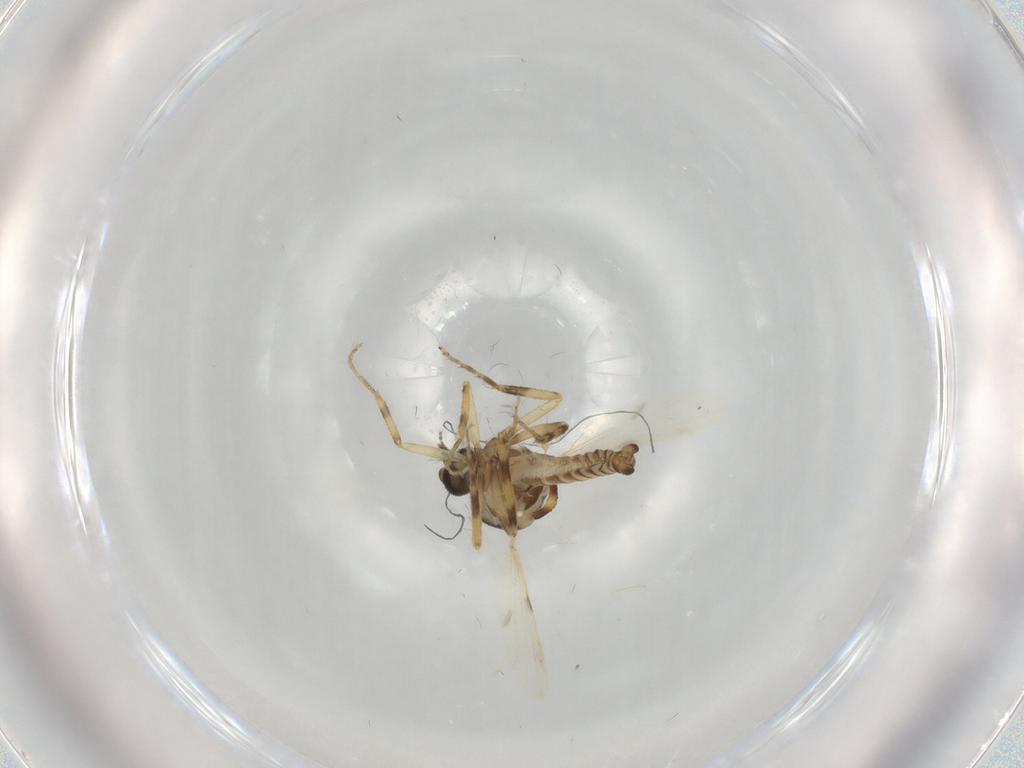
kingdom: Animalia
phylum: Arthropoda
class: Insecta
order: Diptera
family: Ceratopogonidae
